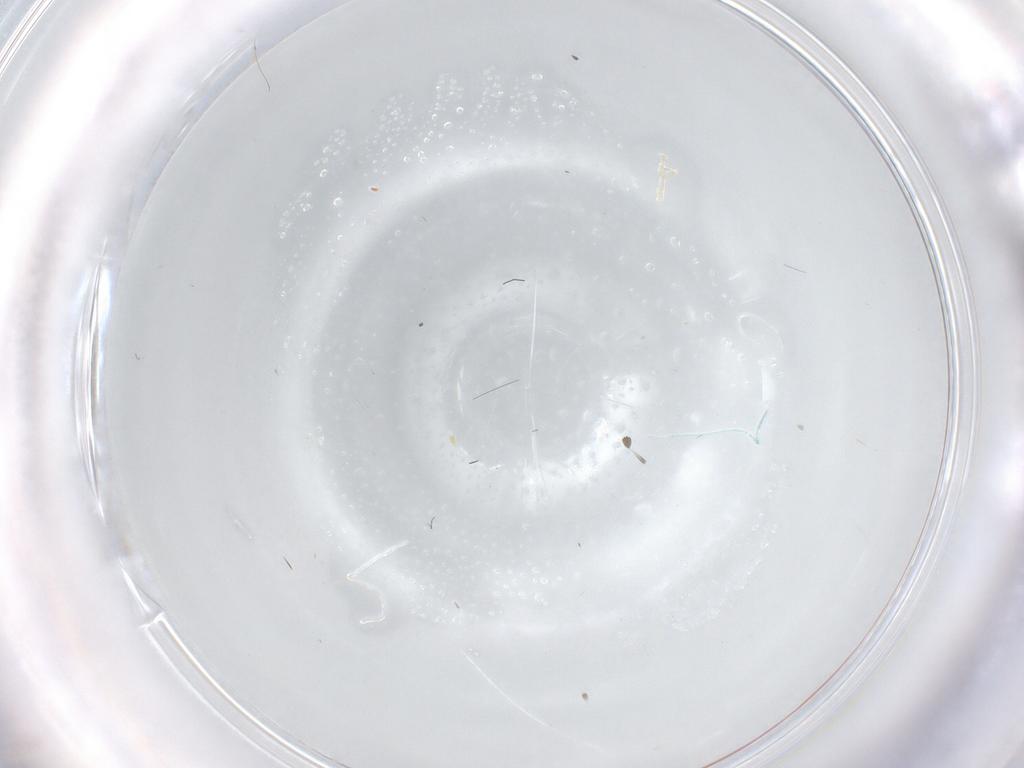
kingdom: Animalia
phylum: Arthropoda
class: Insecta
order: Diptera
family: Sciaridae
